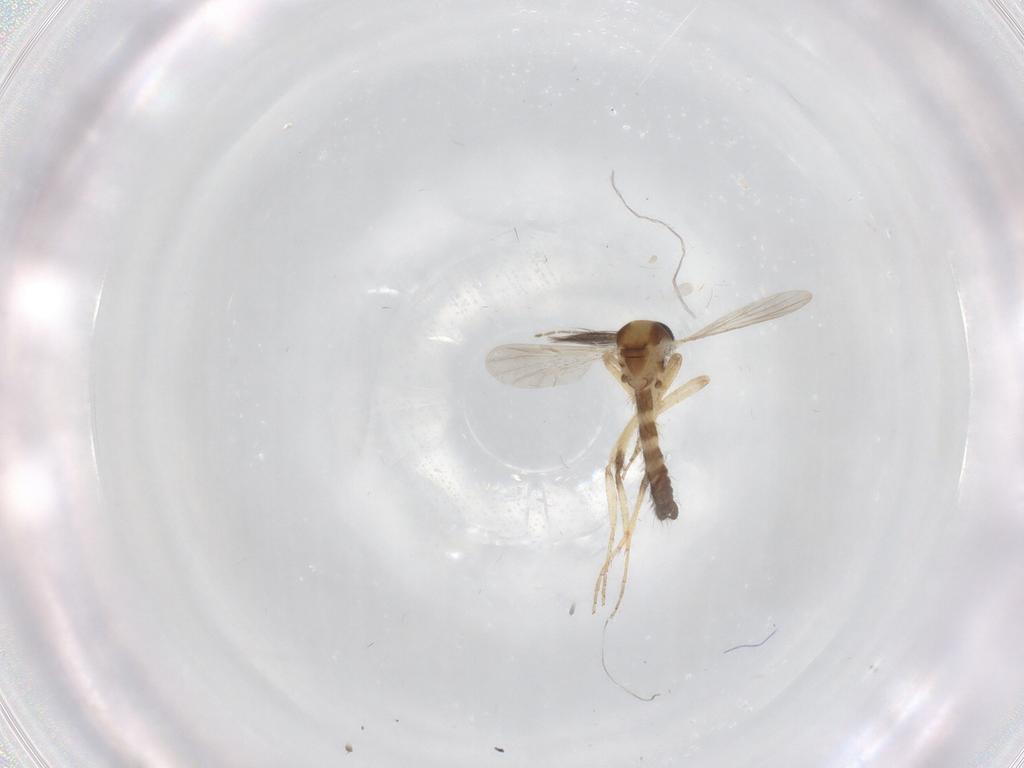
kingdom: Animalia
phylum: Arthropoda
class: Insecta
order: Diptera
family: Ceratopogonidae
